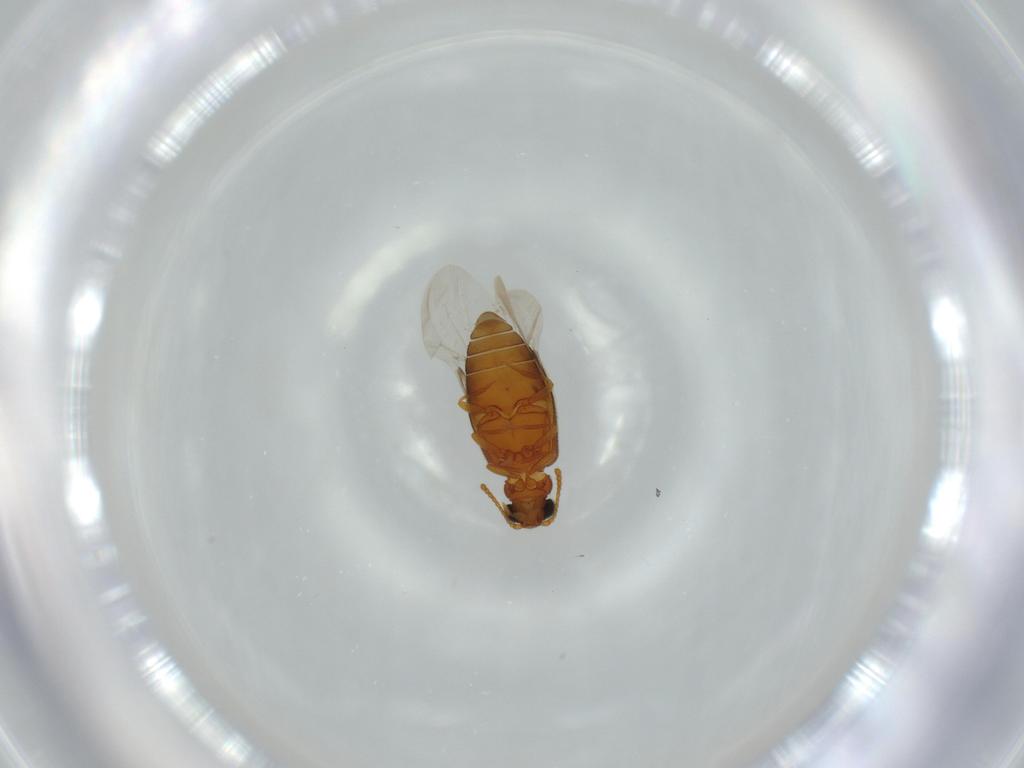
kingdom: Animalia
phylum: Arthropoda
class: Insecta
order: Coleoptera
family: Aderidae
